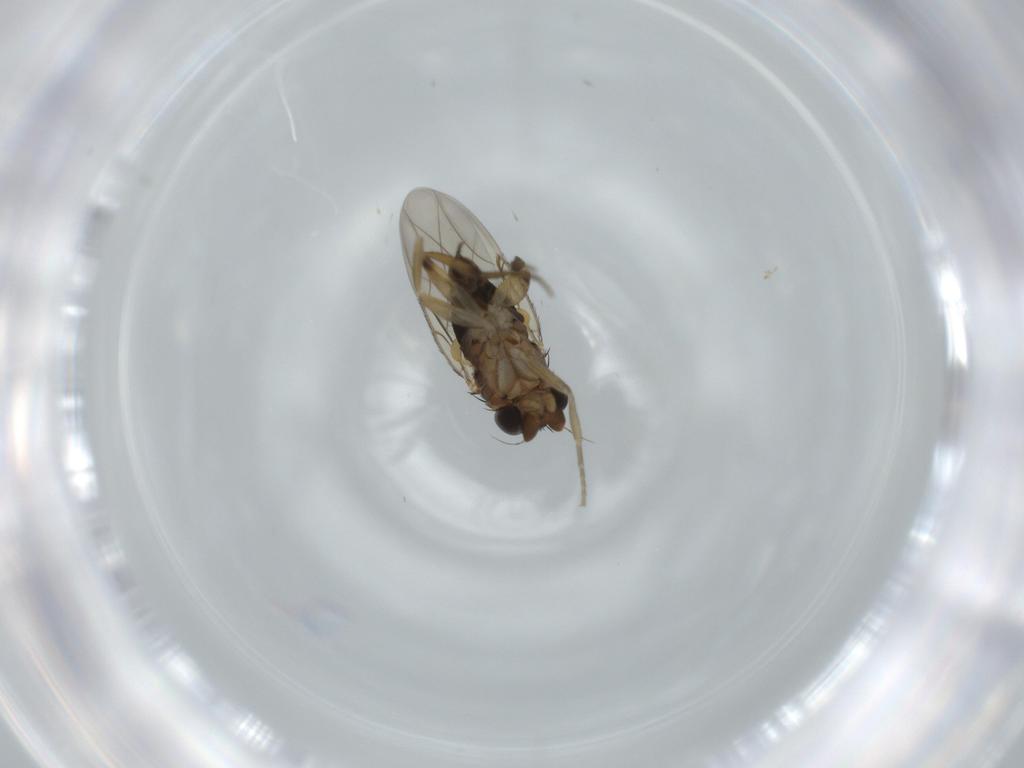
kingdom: Animalia
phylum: Arthropoda
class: Insecta
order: Diptera
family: Phoridae
